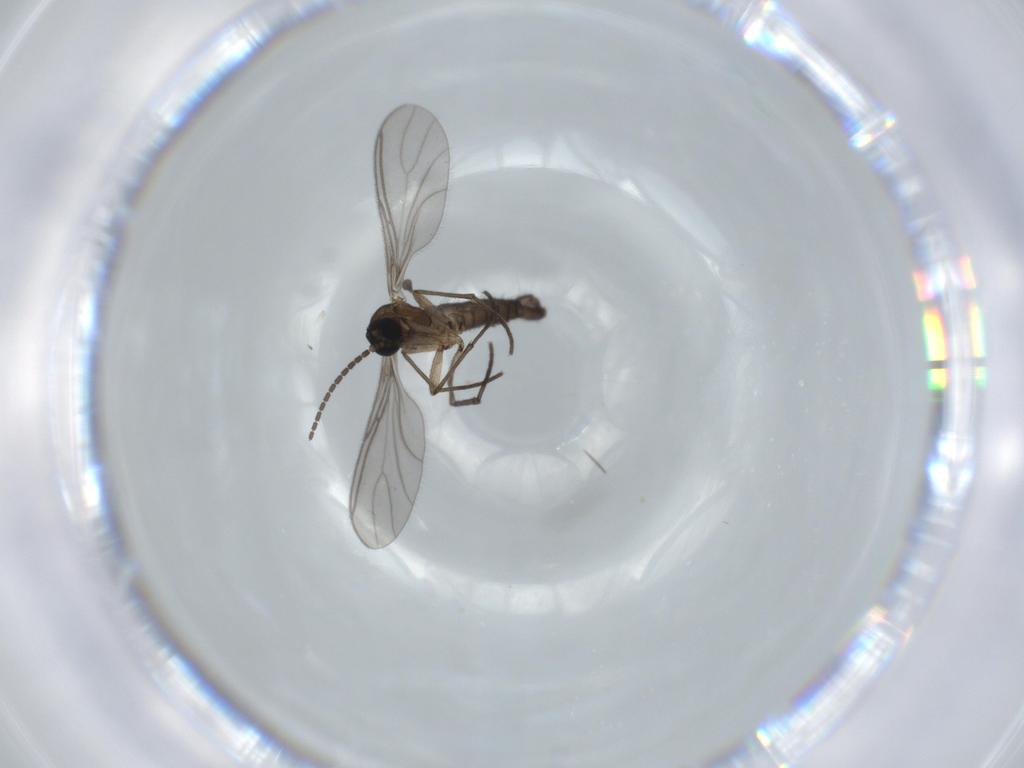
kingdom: Animalia
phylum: Arthropoda
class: Insecta
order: Diptera
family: Sciaridae
